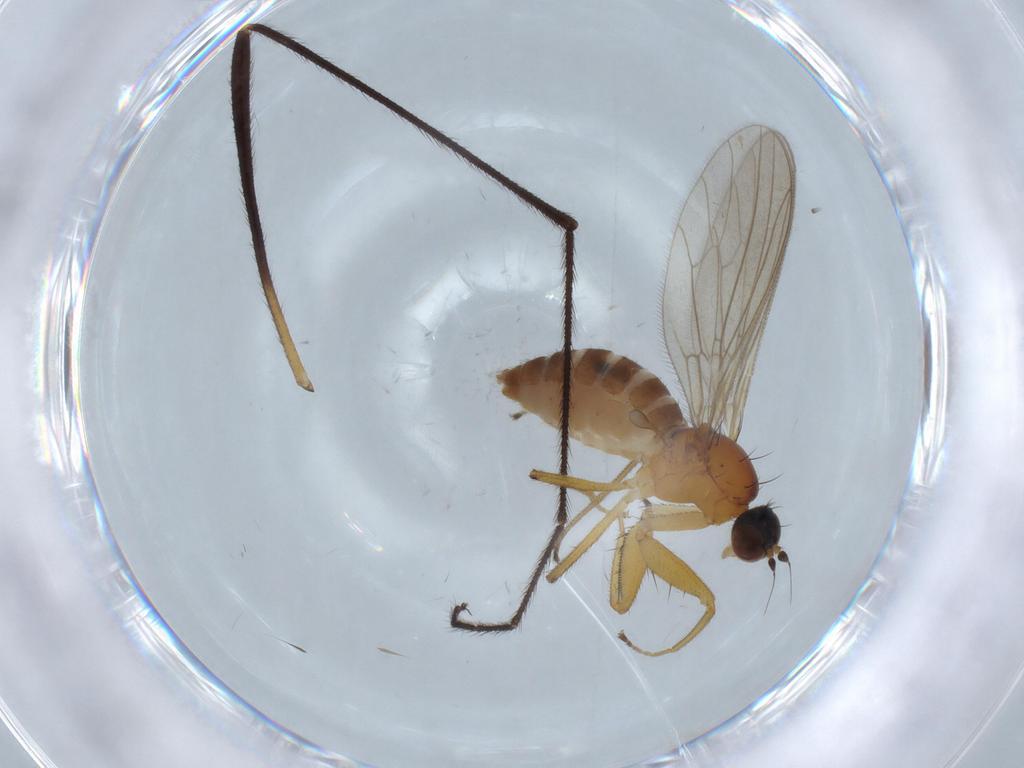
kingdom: Animalia
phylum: Arthropoda
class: Insecta
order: Diptera
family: Empididae
